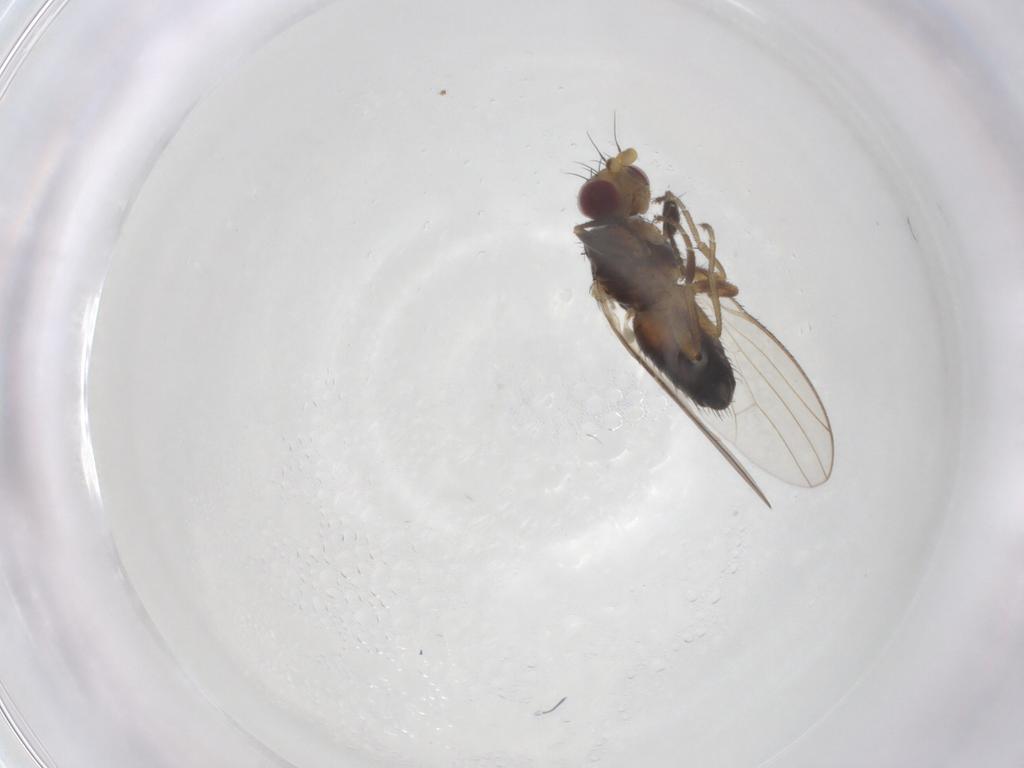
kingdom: Animalia
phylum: Arthropoda
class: Insecta
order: Diptera
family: Heleomyzidae
